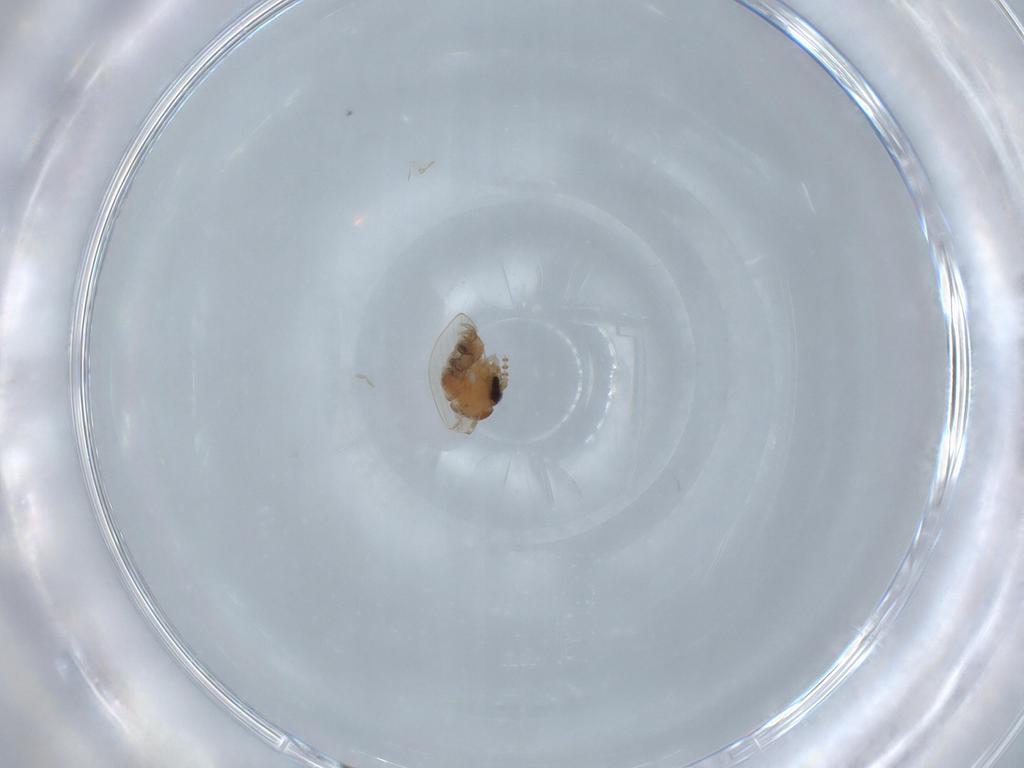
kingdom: Animalia
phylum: Arthropoda
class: Insecta
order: Diptera
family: Psychodidae
